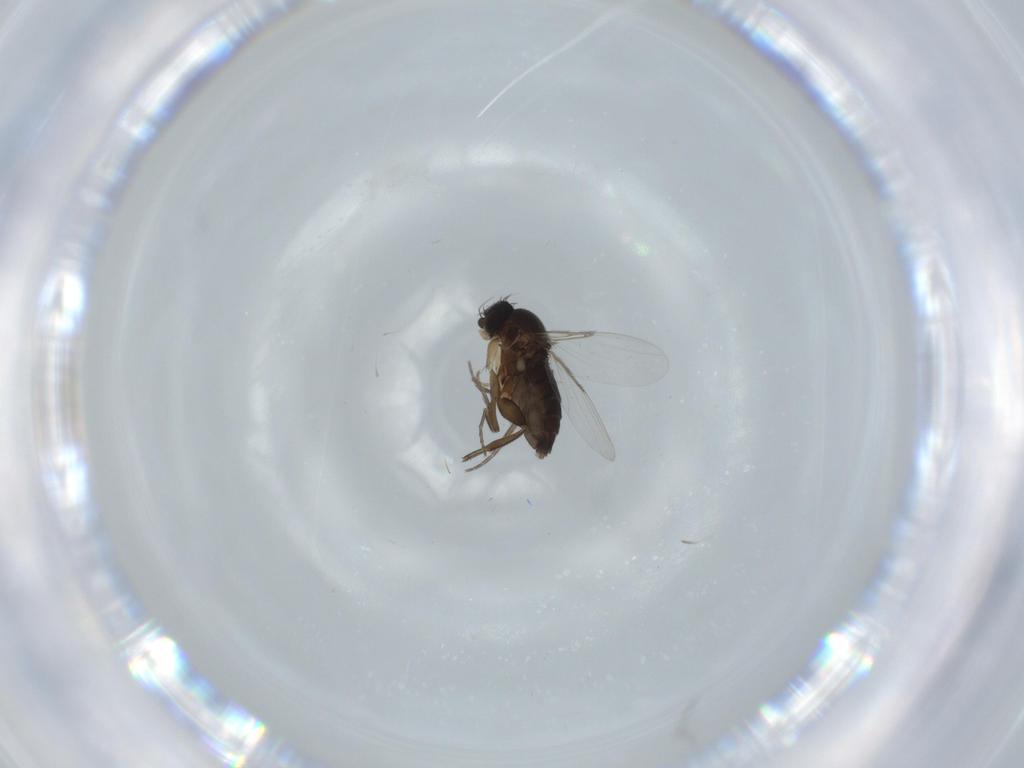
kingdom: Animalia
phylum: Arthropoda
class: Insecta
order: Diptera
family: Phoridae
